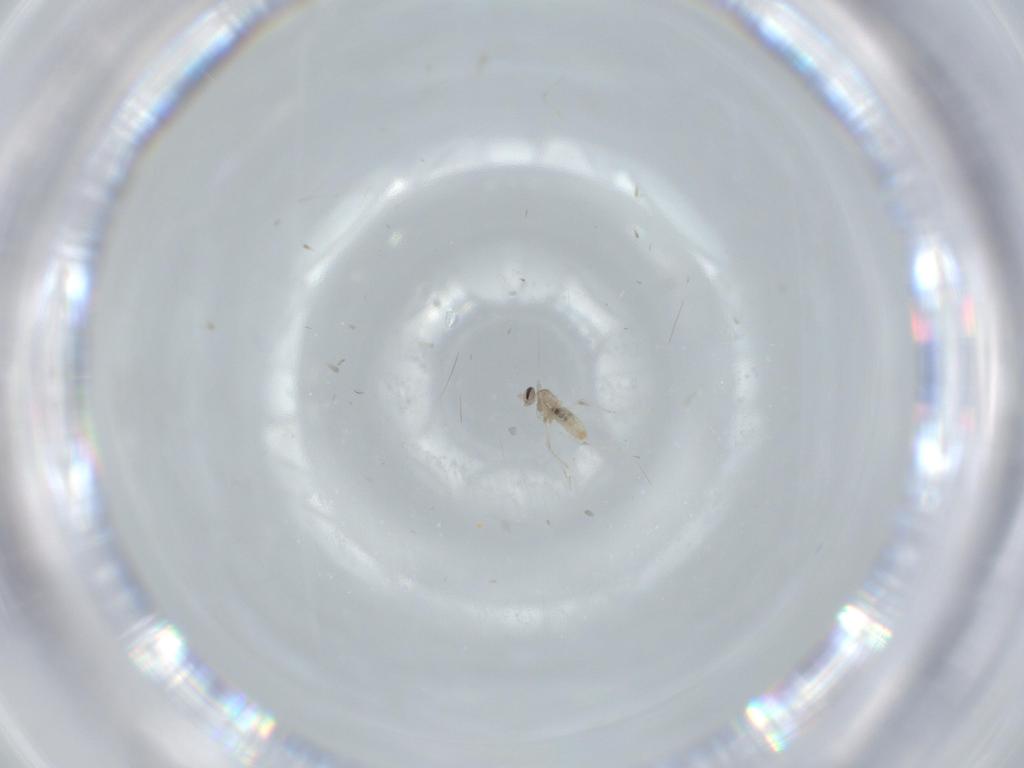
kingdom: Animalia
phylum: Arthropoda
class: Insecta
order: Diptera
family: Cecidomyiidae
